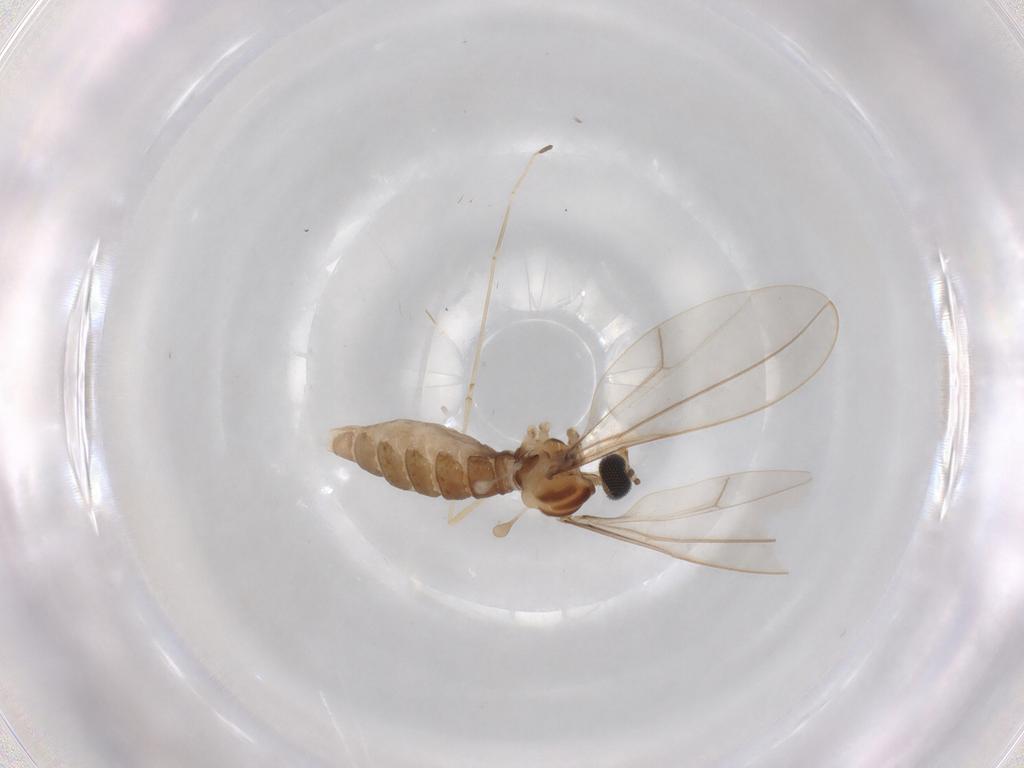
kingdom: Animalia
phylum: Arthropoda
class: Insecta
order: Diptera
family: Cecidomyiidae
